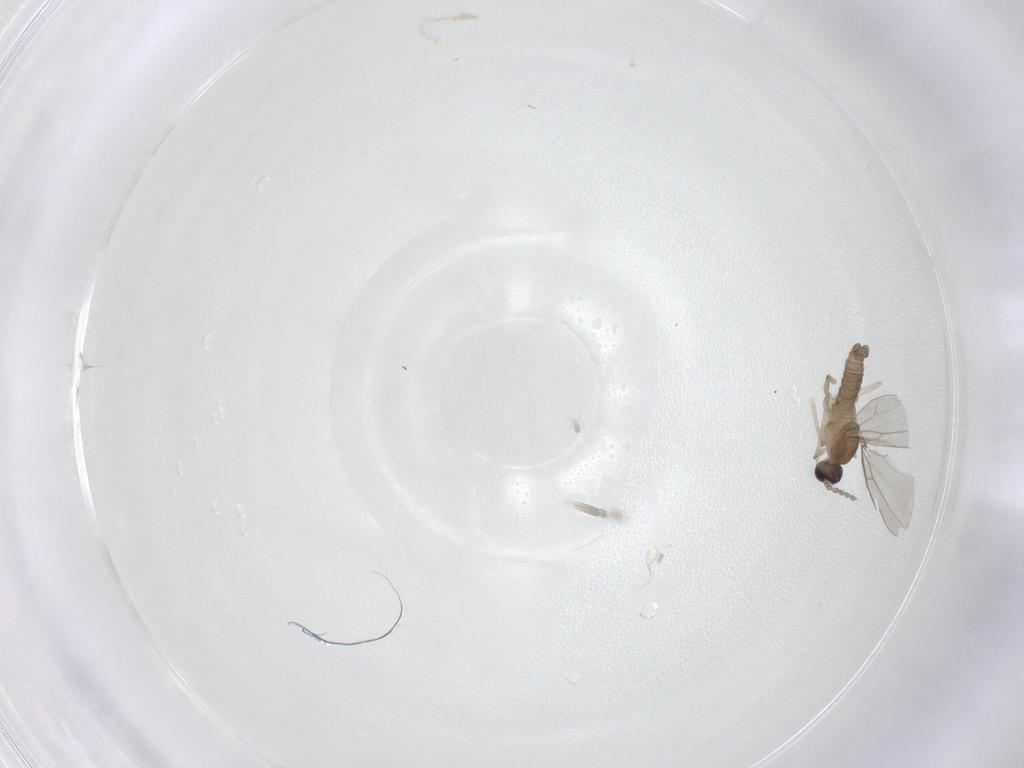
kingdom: Animalia
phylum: Arthropoda
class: Insecta
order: Diptera
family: Cecidomyiidae
